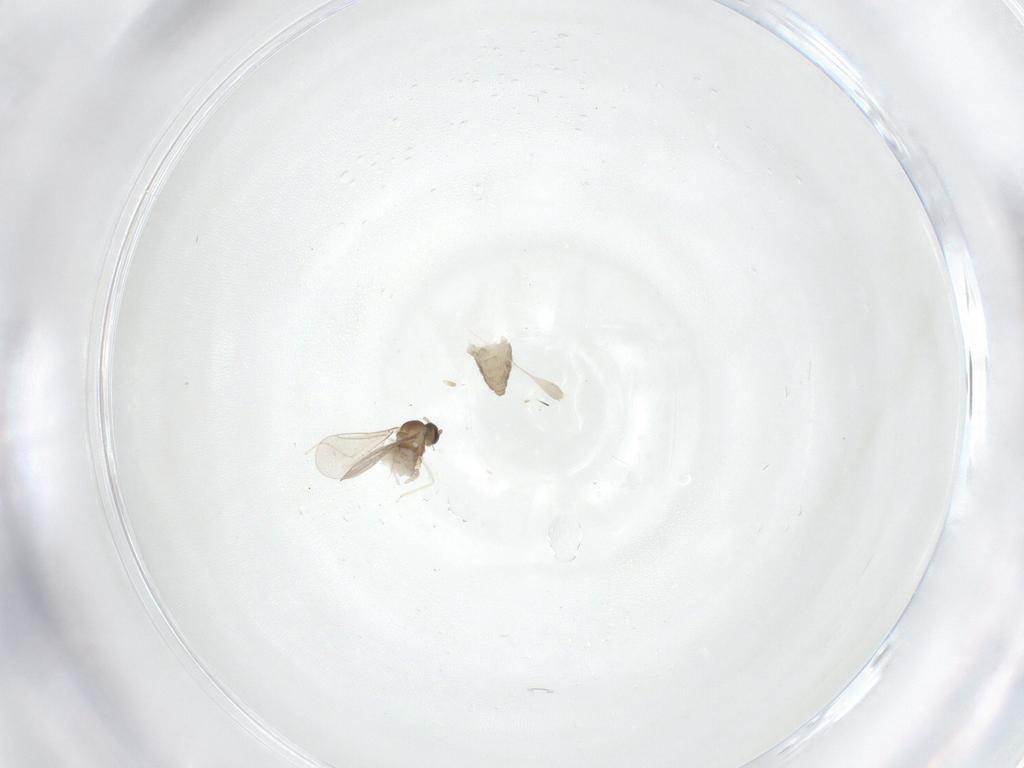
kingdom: Animalia
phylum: Arthropoda
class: Insecta
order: Diptera
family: Cecidomyiidae
